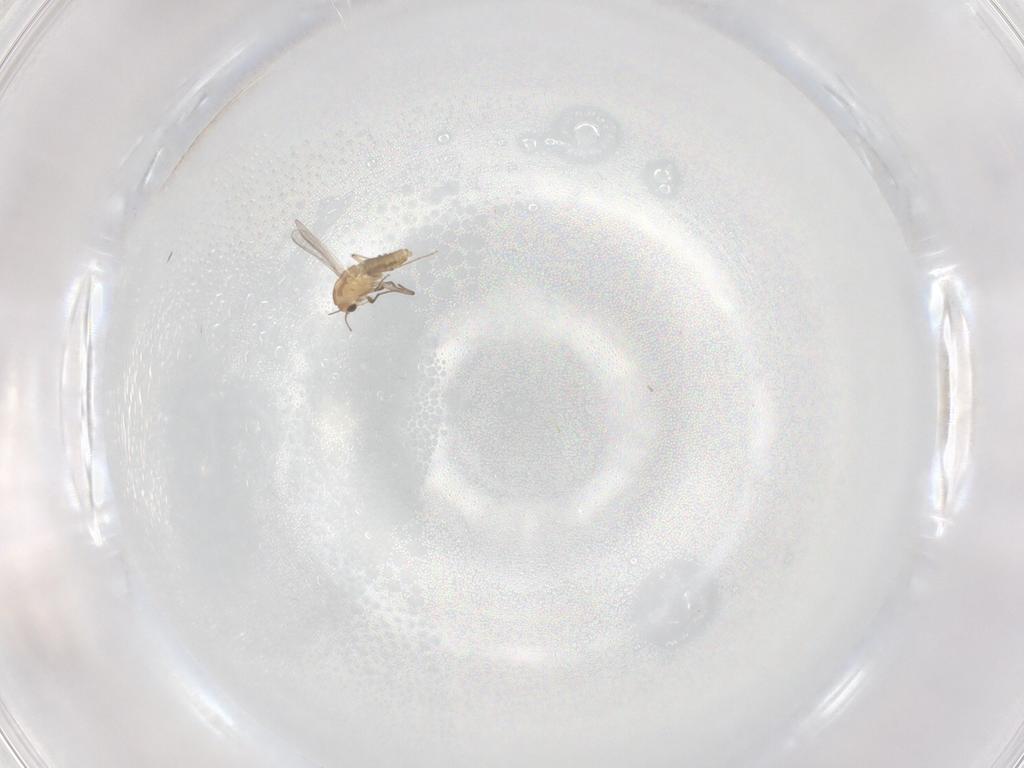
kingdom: Animalia
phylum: Arthropoda
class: Insecta
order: Diptera
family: Chironomidae
